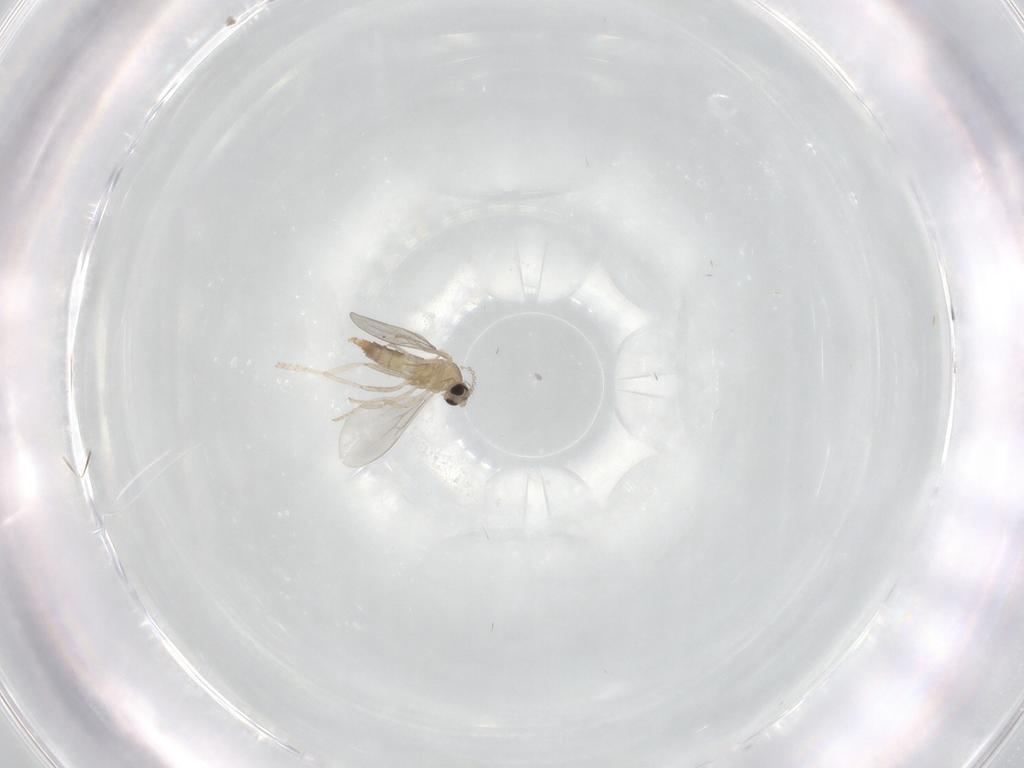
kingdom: Animalia
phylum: Arthropoda
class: Insecta
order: Diptera
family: Cecidomyiidae
